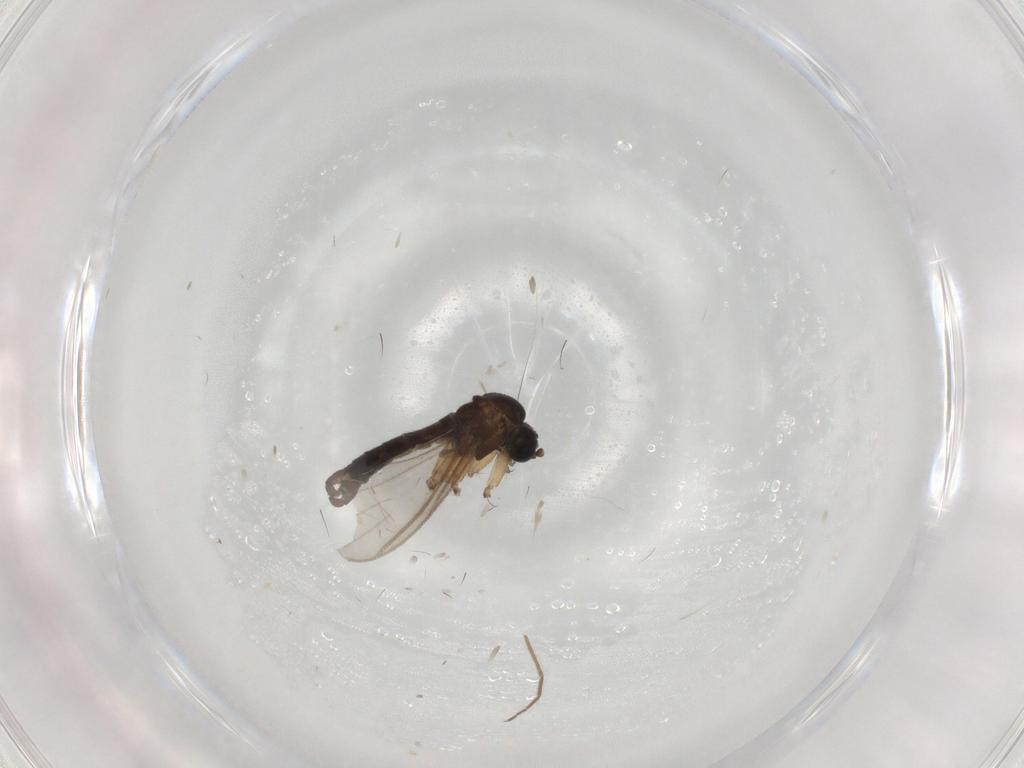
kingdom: Animalia
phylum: Arthropoda
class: Insecta
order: Diptera
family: Sciaridae
